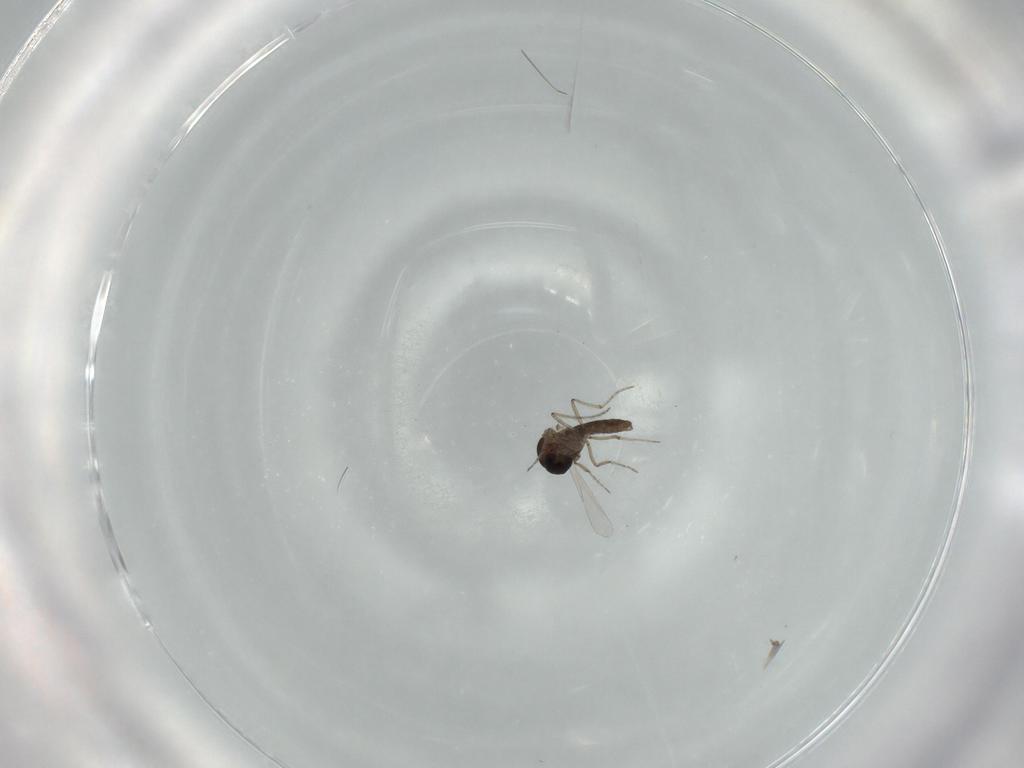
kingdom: Animalia
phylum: Arthropoda
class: Insecta
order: Diptera
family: Ceratopogonidae
